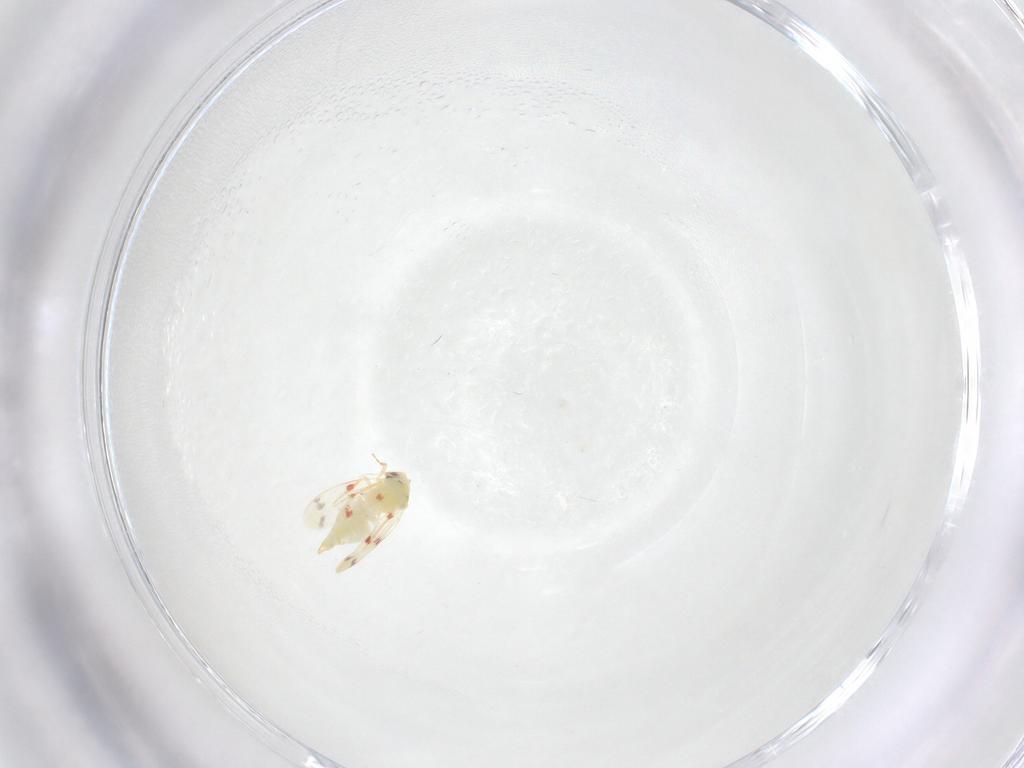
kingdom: Animalia
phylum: Arthropoda
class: Insecta
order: Hemiptera
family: Aleyrodidae
